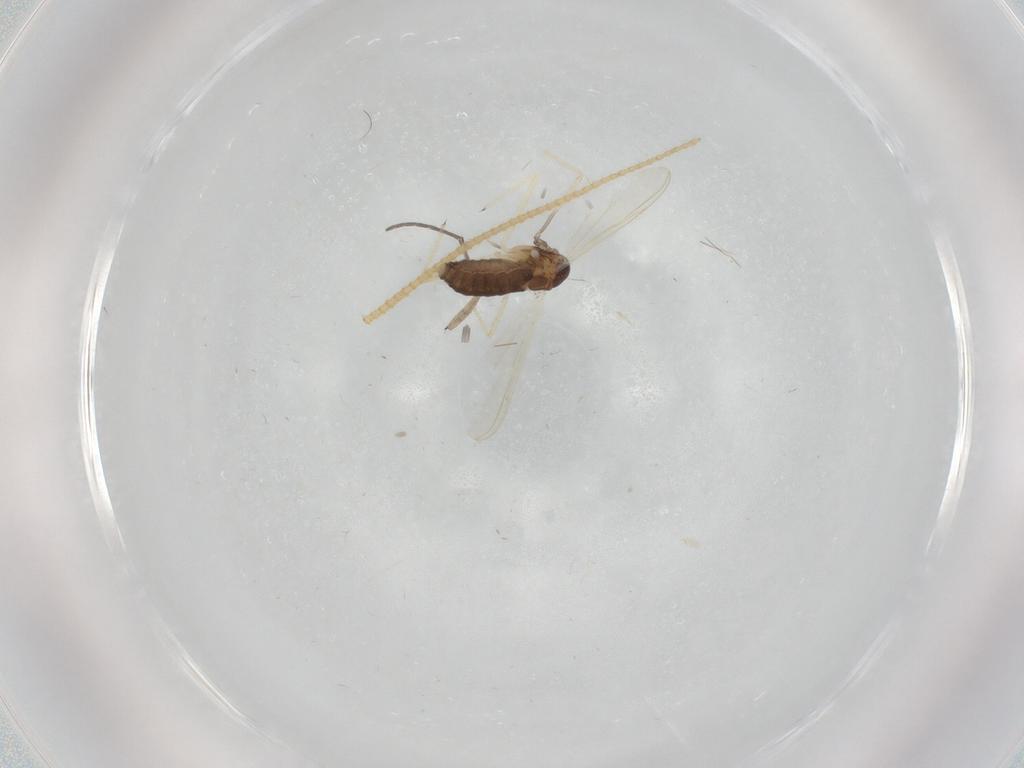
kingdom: Animalia
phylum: Arthropoda
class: Insecta
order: Diptera
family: Chironomidae
